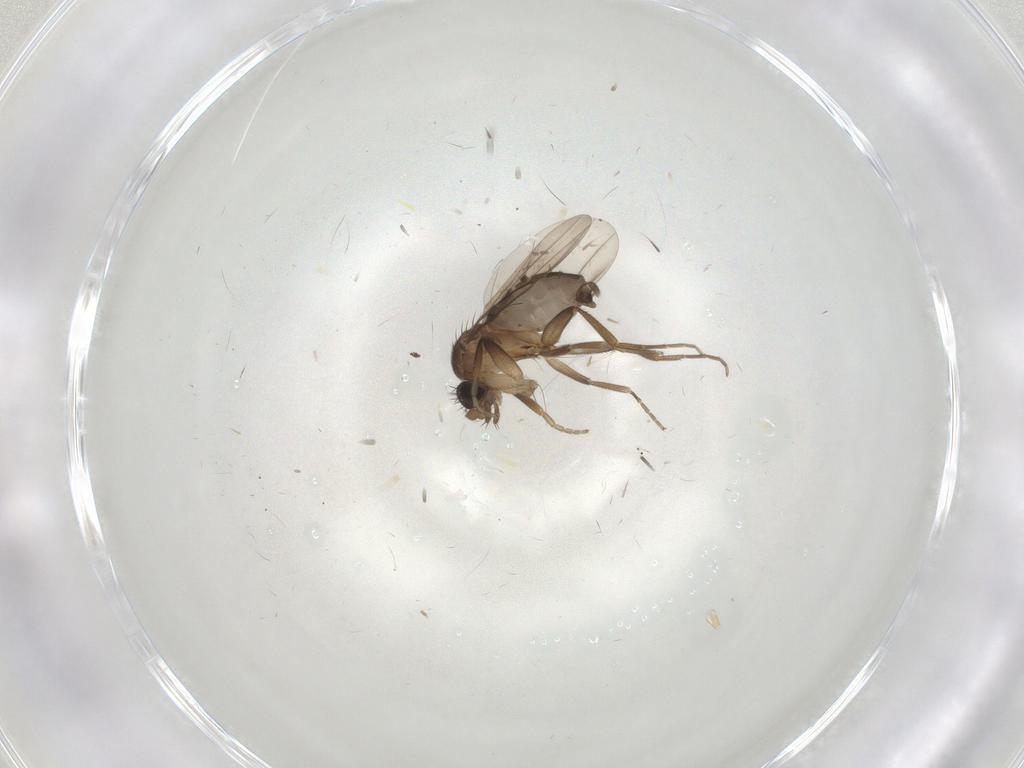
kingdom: Animalia
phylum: Arthropoda
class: Insecta
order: Diptera
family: Phoridae
